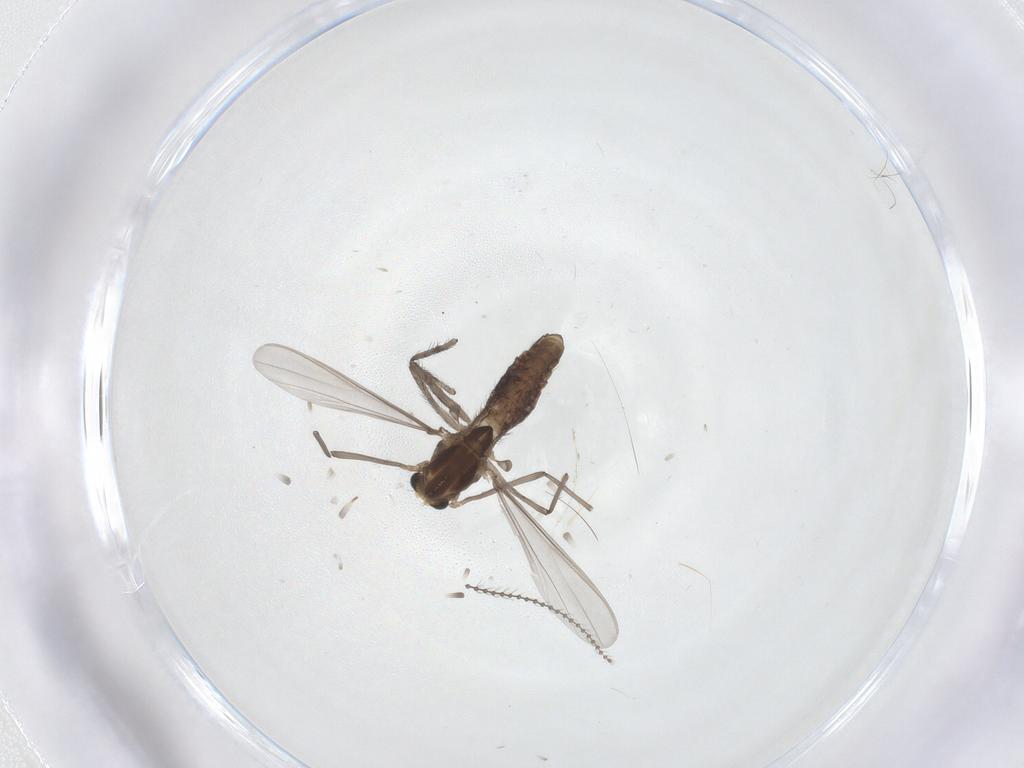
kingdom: Animalia
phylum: Arthropoda
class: Insecta
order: Diptera
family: Chironomidae
